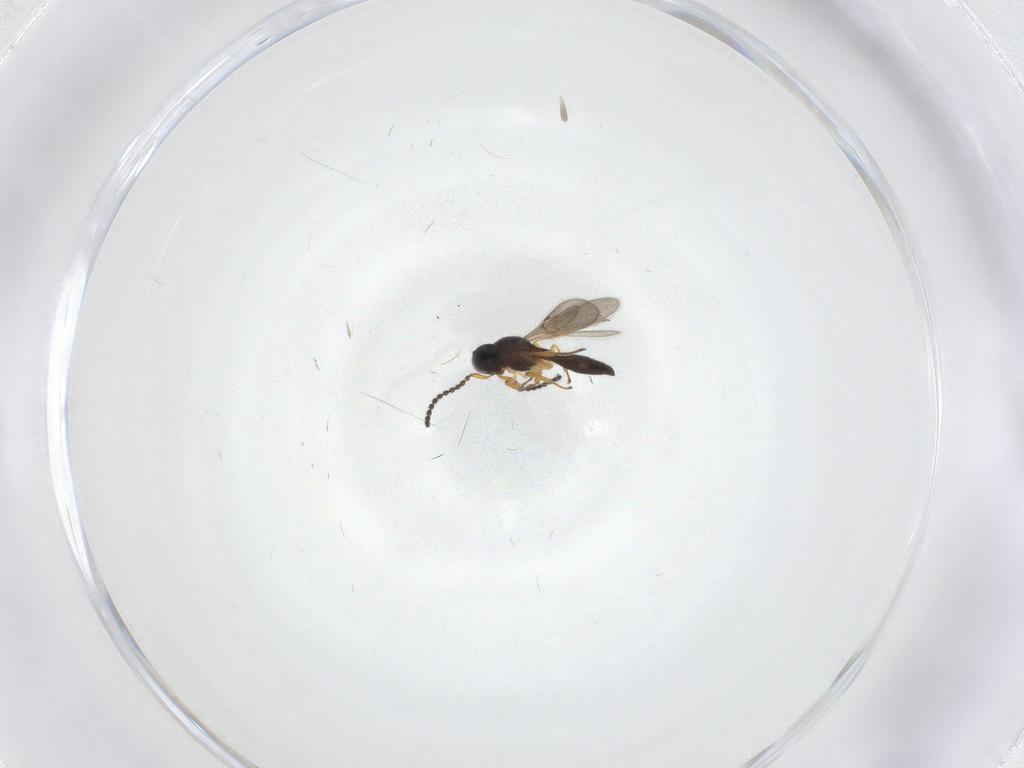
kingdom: Animalia
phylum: Arthropoda
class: Insecta
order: Hymenoptera
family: Scelionidae
